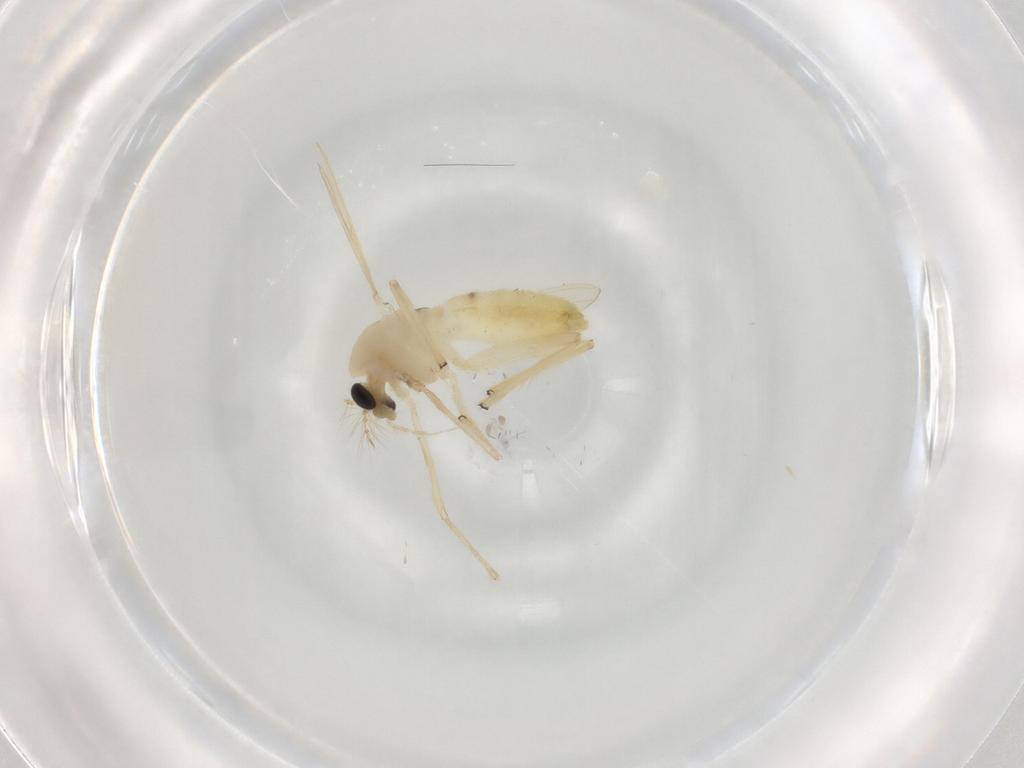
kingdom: Animalia
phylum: Arthropoda
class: Insecta
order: Diptera
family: Chironomidae
